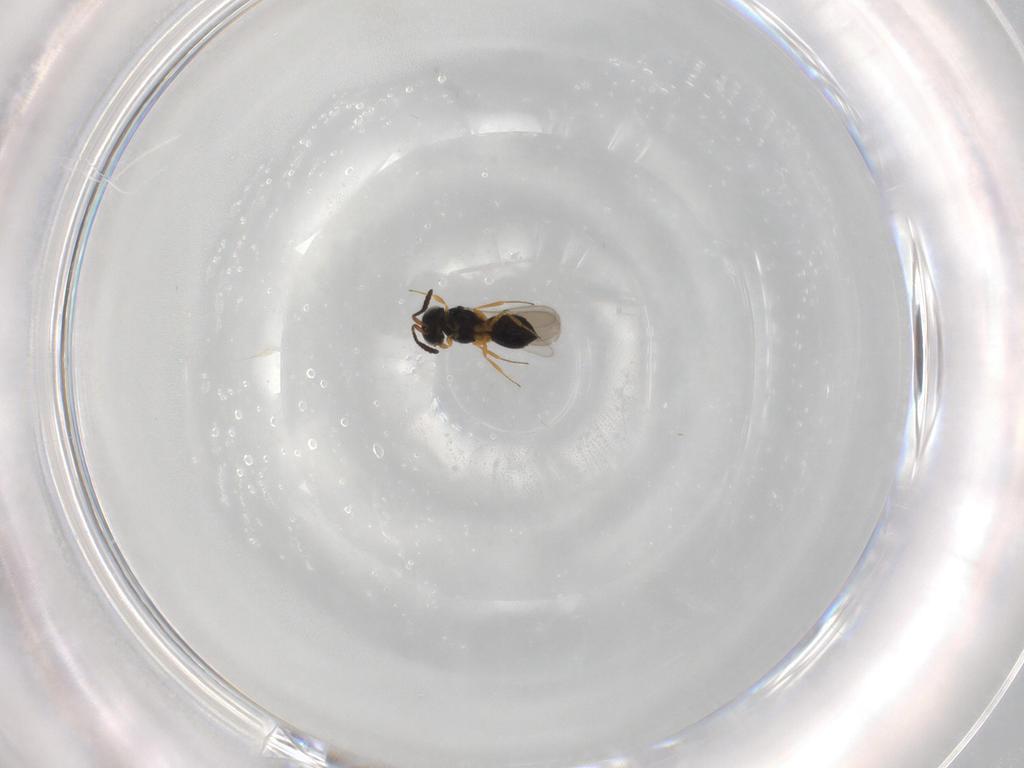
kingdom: Animalia
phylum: Arthropoda
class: Insecta
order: Hymenoptera
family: Scelionidae
